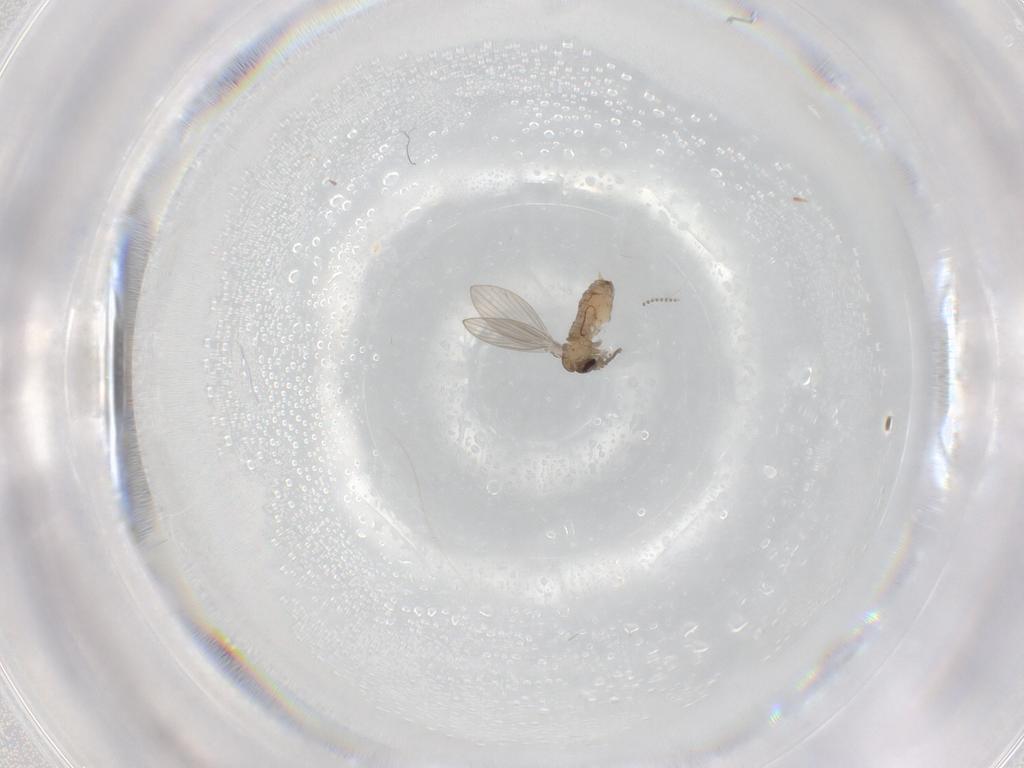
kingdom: Animalia
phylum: Arthropoda
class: Insecta
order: Diptera
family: Psychodidae
